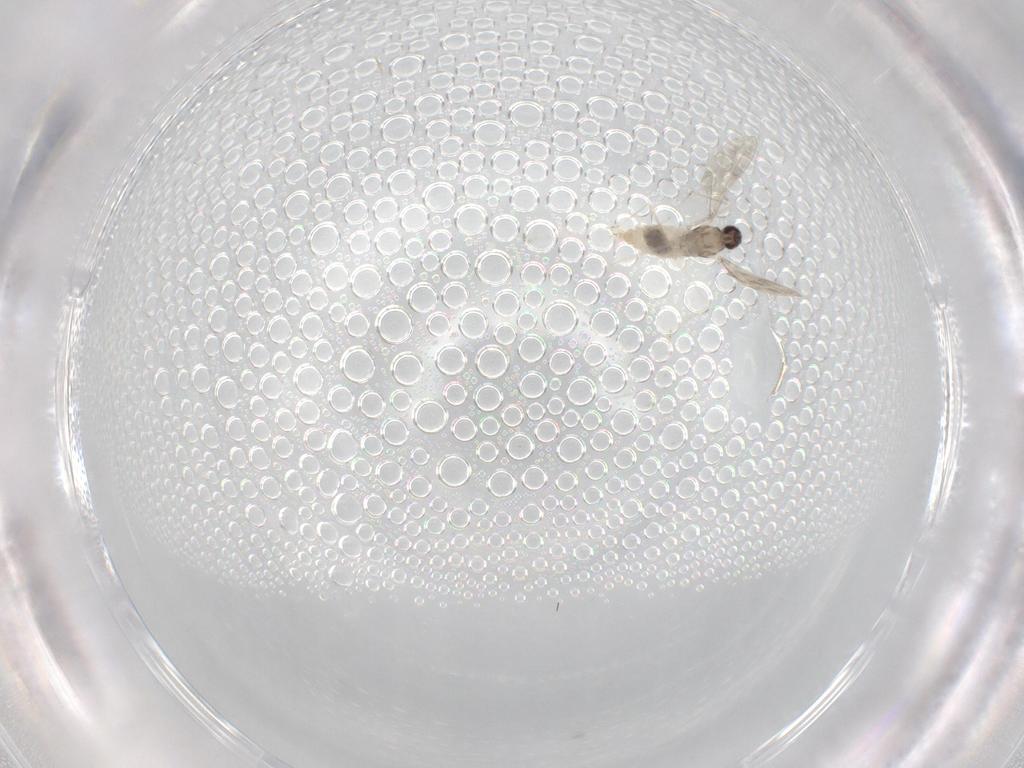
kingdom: Animalia
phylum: Arthropoda
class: Insecta
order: Diptera
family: Cecidomyiidae
